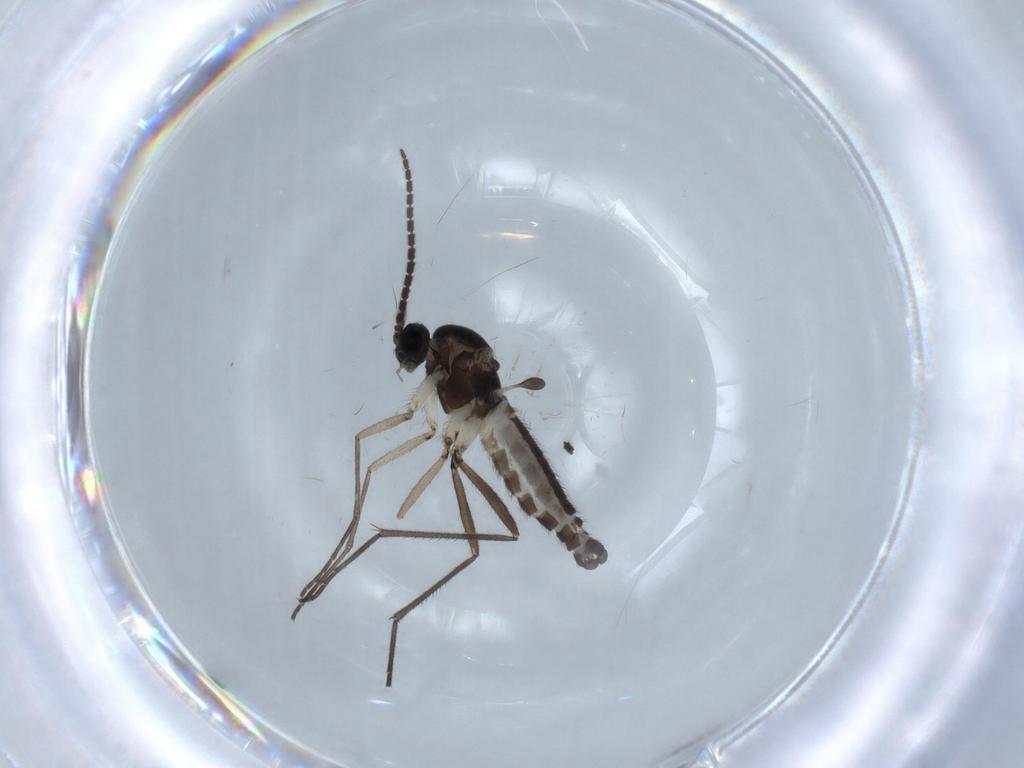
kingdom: Animalia
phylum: Arthropoda
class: Insecta
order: Diptera
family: Sciaridae
